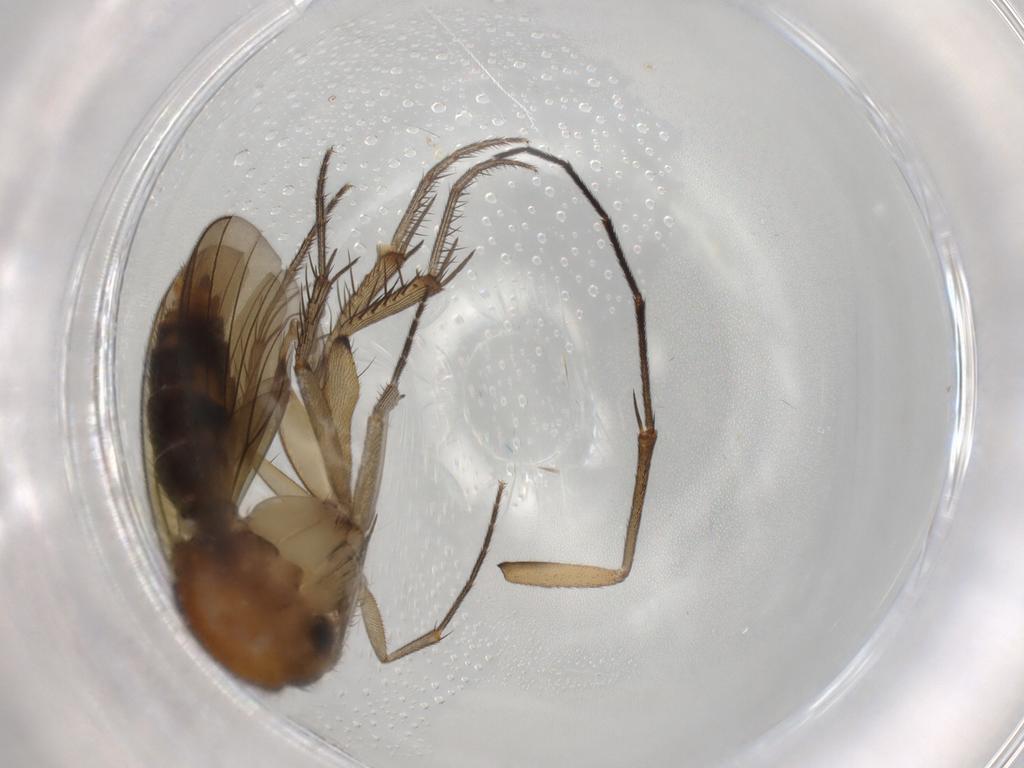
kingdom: Animalia
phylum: Arthropoda
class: Insecta
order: Diptera
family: Mycetophilidae
